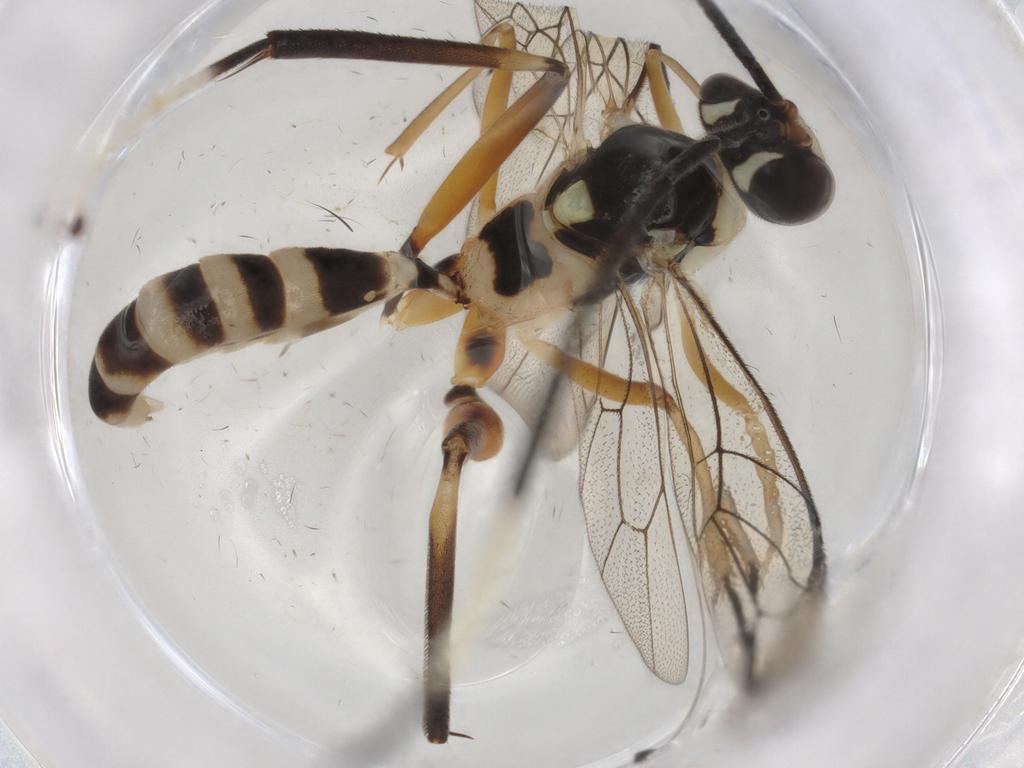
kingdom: Animalia
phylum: Arthropoda
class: Insecta
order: Hymenoptera
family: Ichneumonidae
